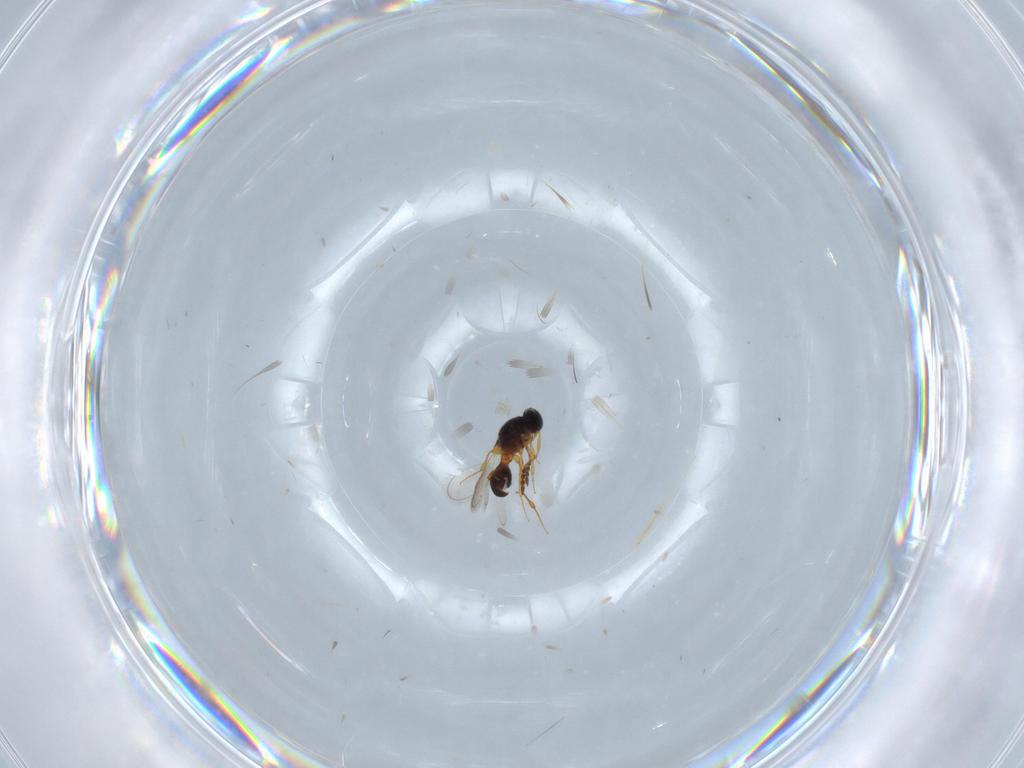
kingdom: Animalia
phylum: Arthropoda
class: Insecta
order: Hymenoptera
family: Platygastridae
